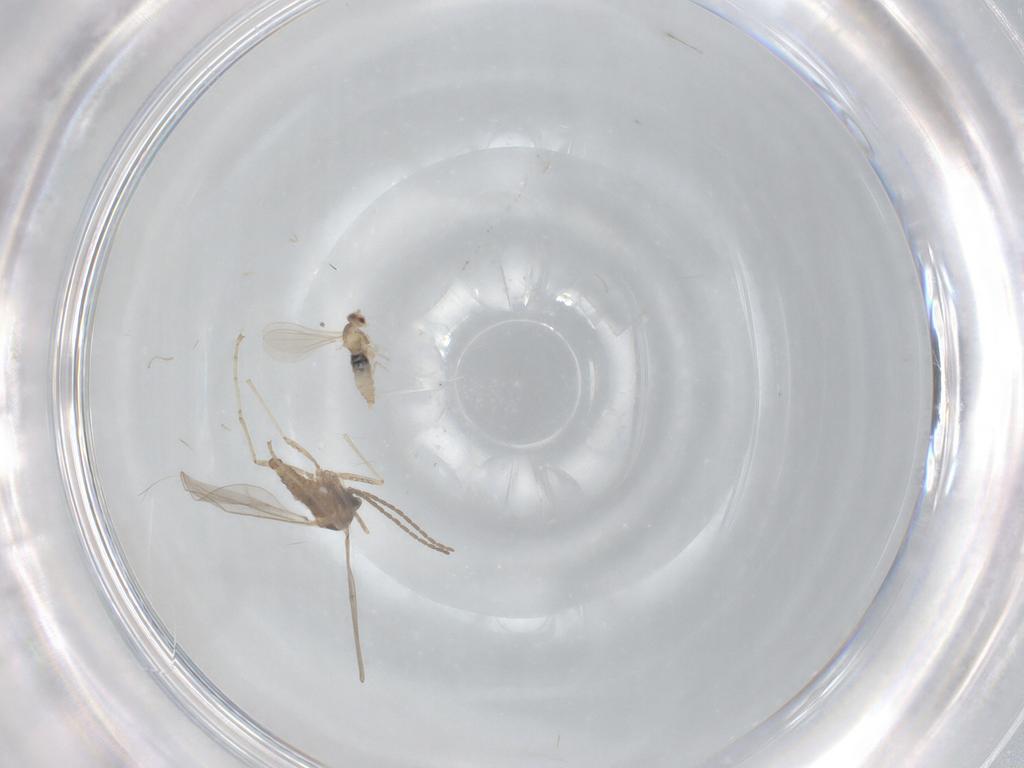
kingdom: Animalia
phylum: Arthropoda
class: Insecta
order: Diptera
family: Cecidomyiidae
